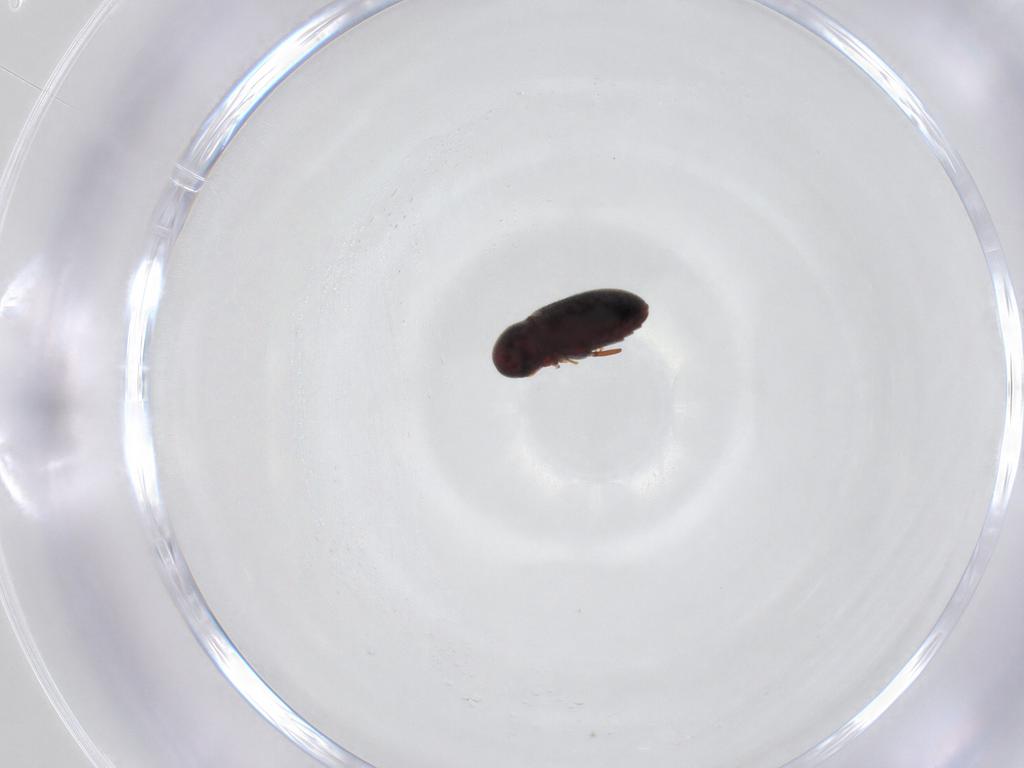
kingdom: Animalia
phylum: Arthropoda
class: Insecta
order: Coleoptera
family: Ptinidae
